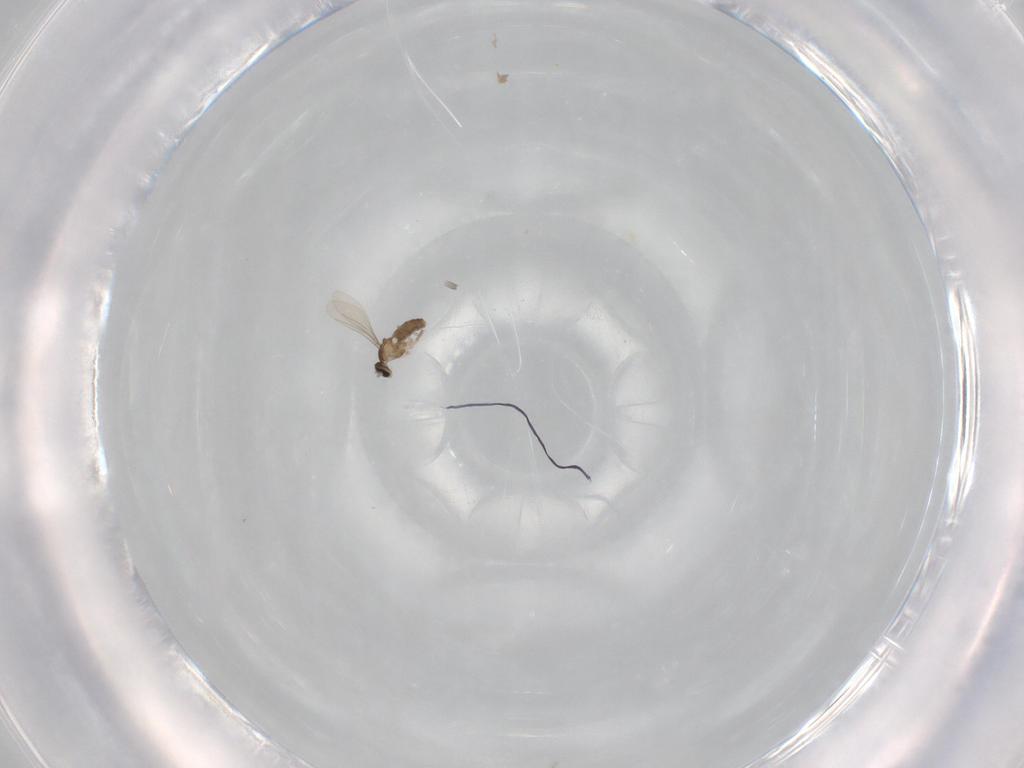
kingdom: Animalia
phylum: Arthropoda
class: Insecta
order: Diptera
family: Cecidomyiidae
